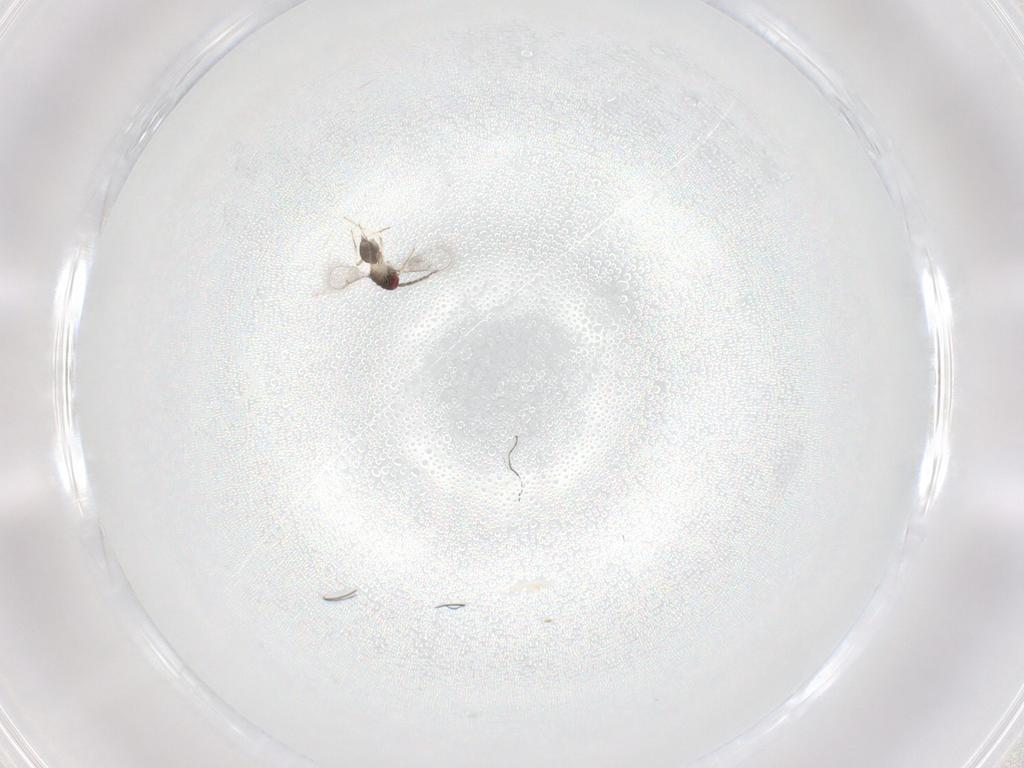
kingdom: Animalia
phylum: Arthropoda
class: Insecta
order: Hymenoptera
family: Eulophidae
